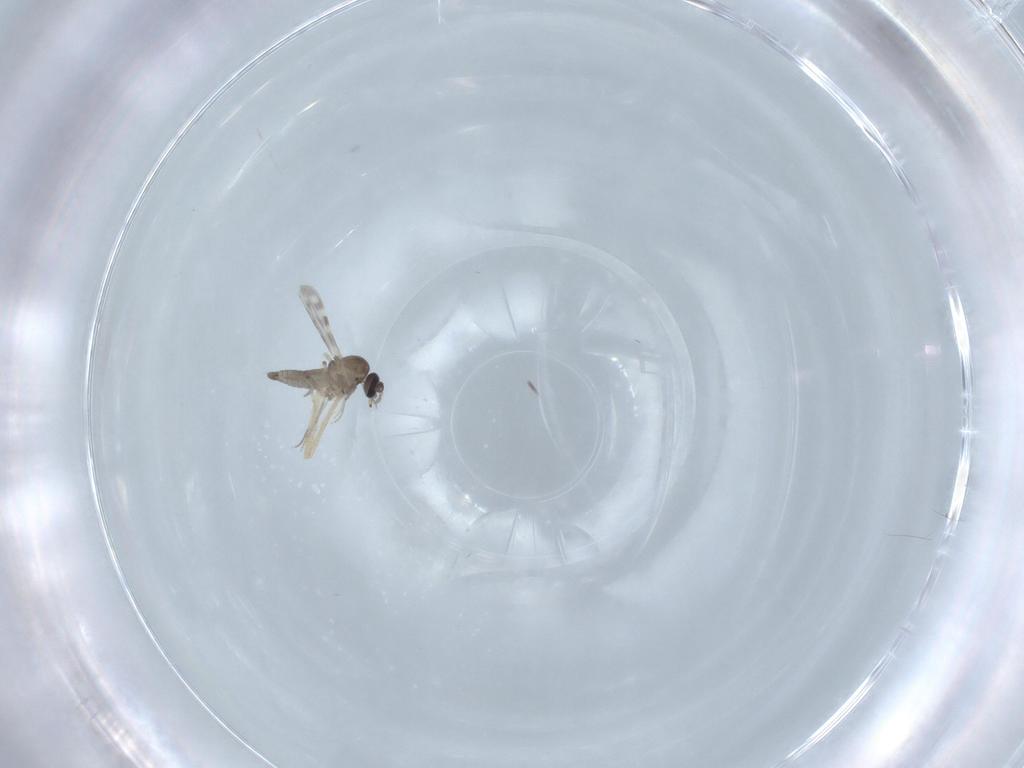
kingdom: Animalia
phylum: Arthropoda
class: Insecta
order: Diptera
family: Ceratopogonidae
